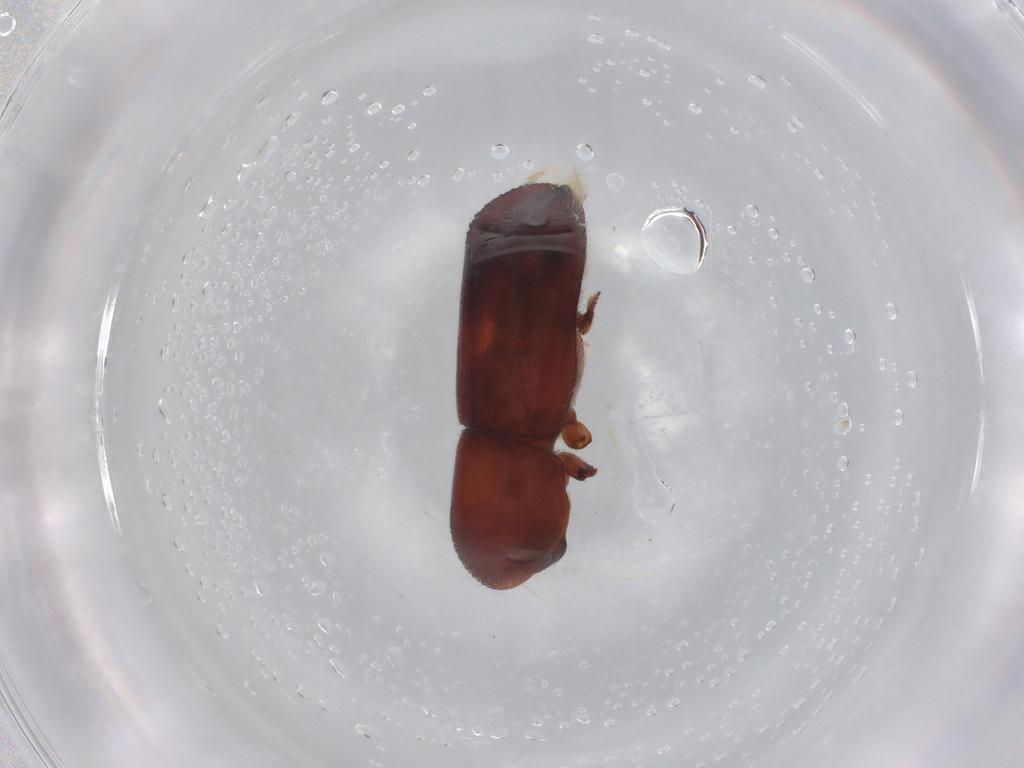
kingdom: Animalia
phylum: Arthropoda
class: Insecta
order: Coleoptera
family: Curculionidae
